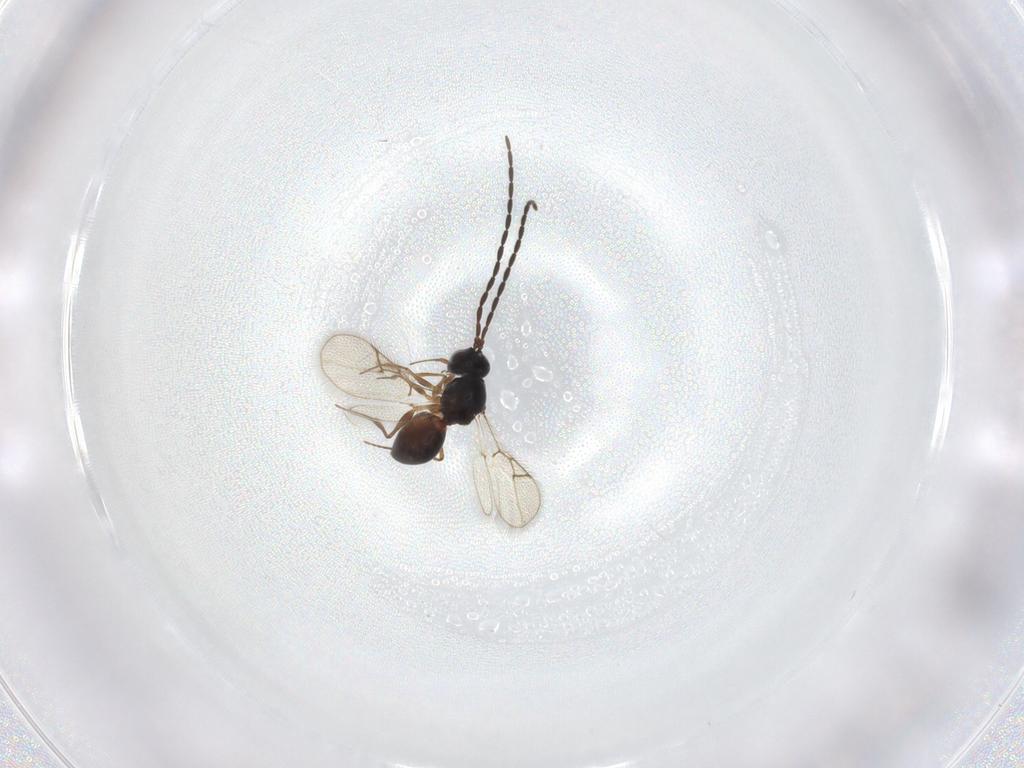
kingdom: Animalia
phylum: Arthropoda
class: Insecta
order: Hymenoptera
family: Figitidae
